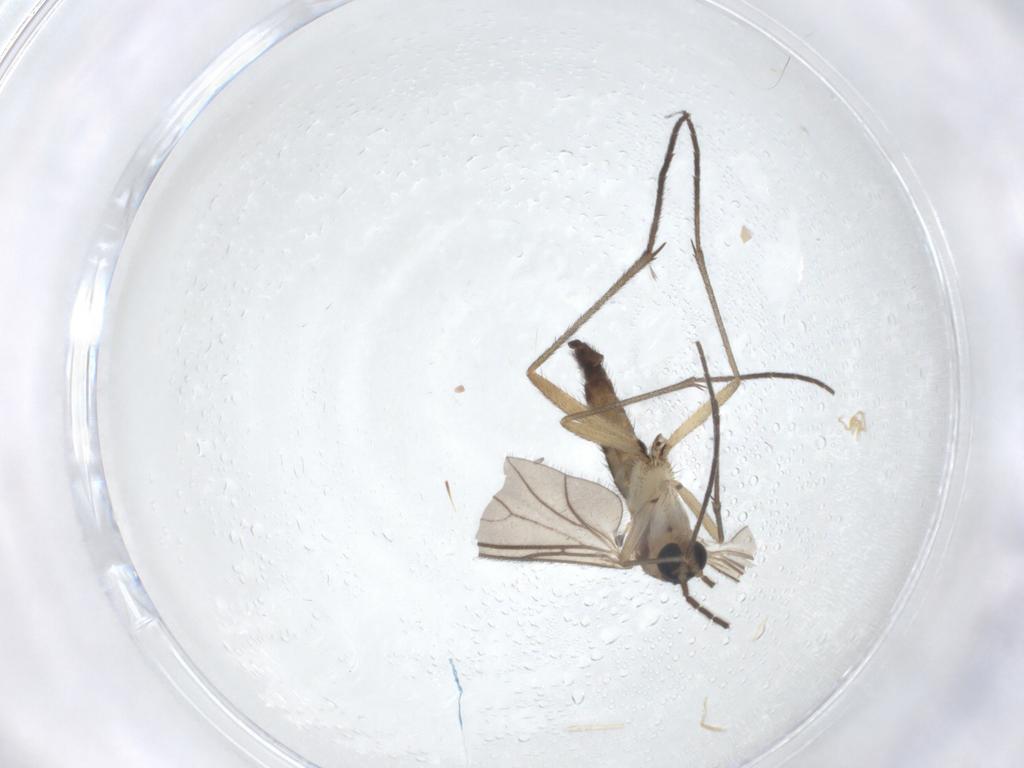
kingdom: Animalia
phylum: Arthropoda
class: Insecta
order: Diptera
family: Sciaridae
